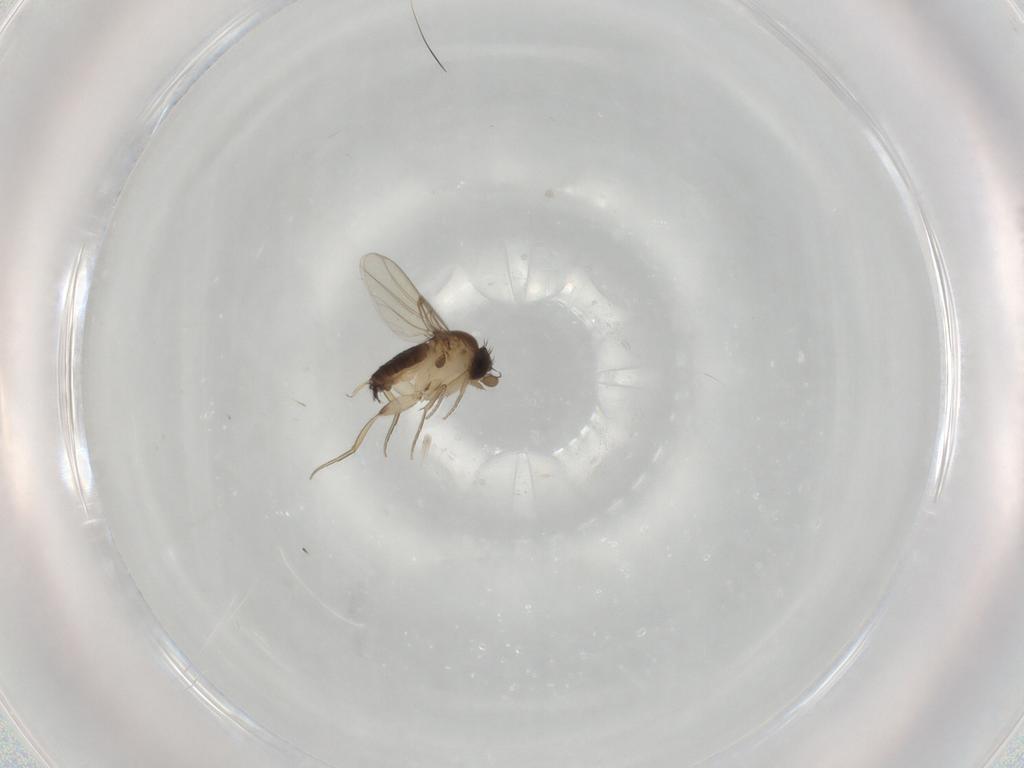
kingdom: Animalia
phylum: Arthropoda
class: Insecta
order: Diptera
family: Phoridae
